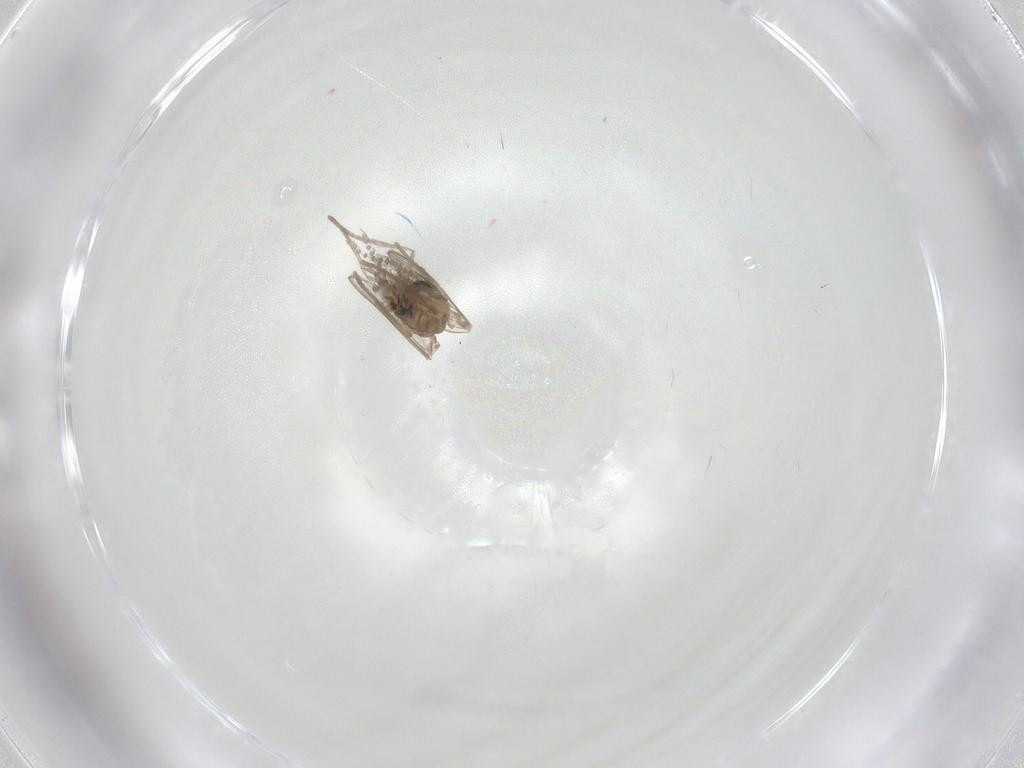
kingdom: Animalia
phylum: Arthropoda
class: Insecta
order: Diptera
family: Psychodidae
